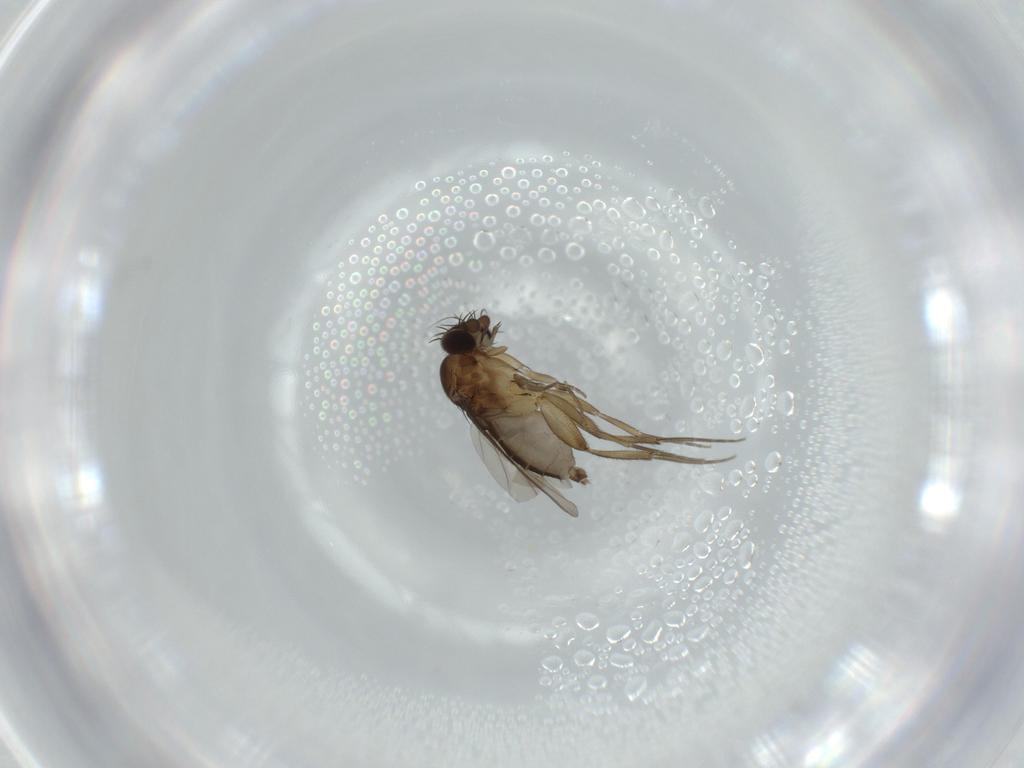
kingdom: Animalia
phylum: Arthropoda
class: Insecta
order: Diptera
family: Phoridae
